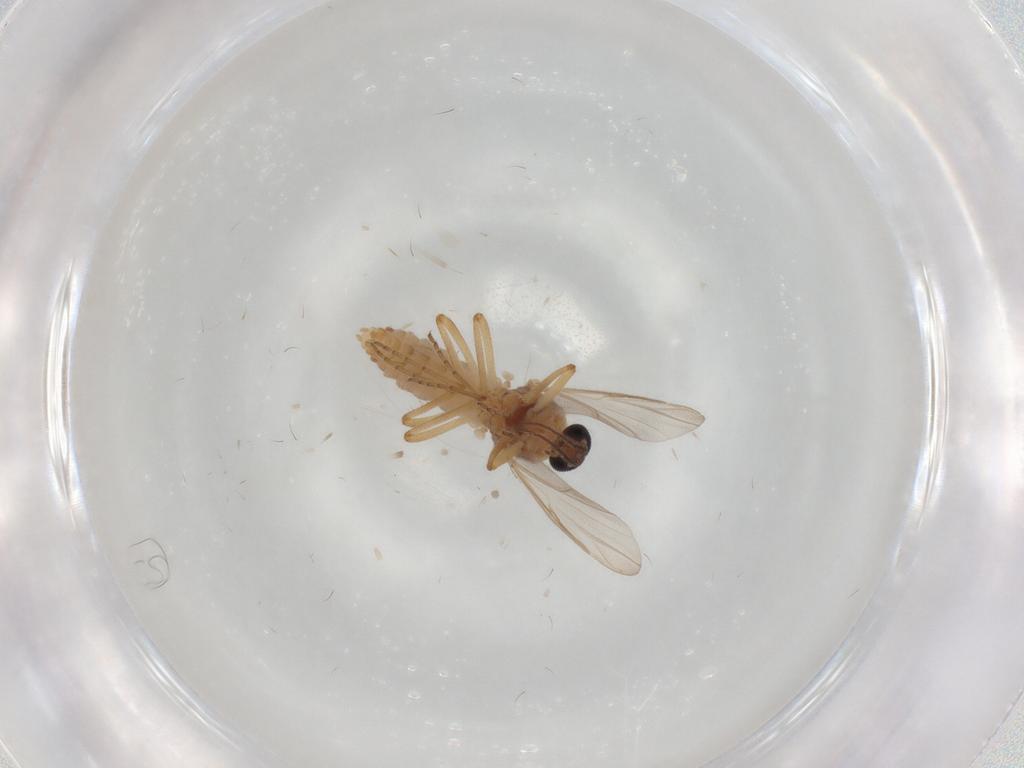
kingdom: Animalia
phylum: Arthropoda
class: Insecta
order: Diptera
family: Ceratopogonidae
